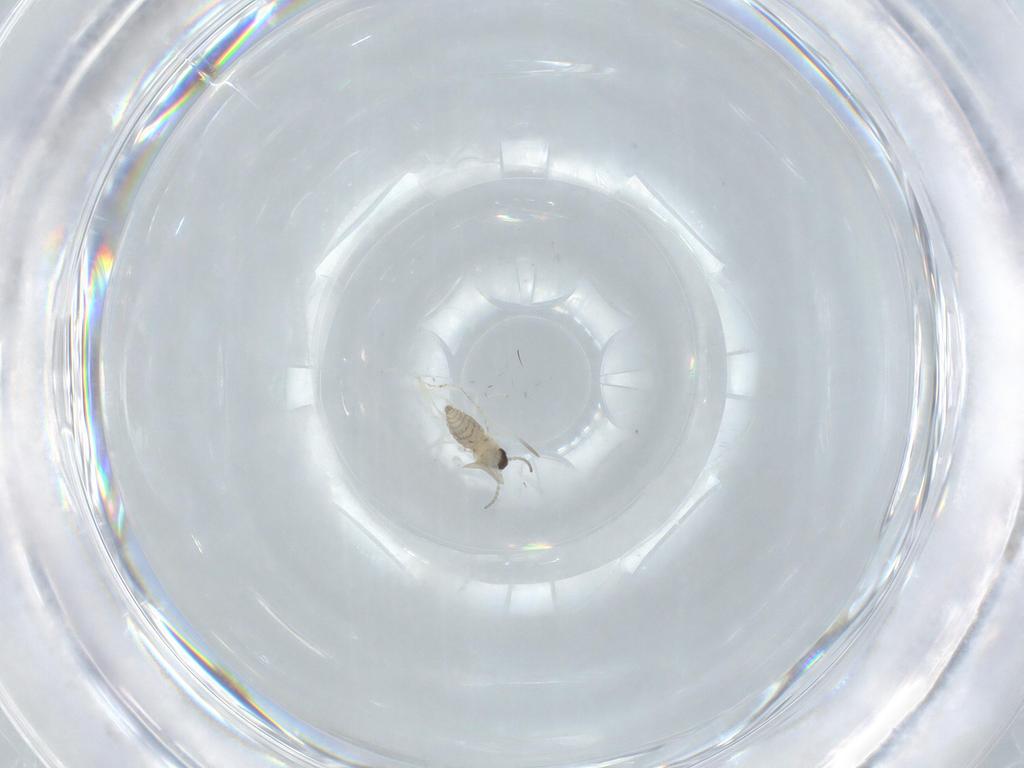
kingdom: Animalia
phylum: Arthropoda
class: Insecta
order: Diptera
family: Cecidomyiidae
